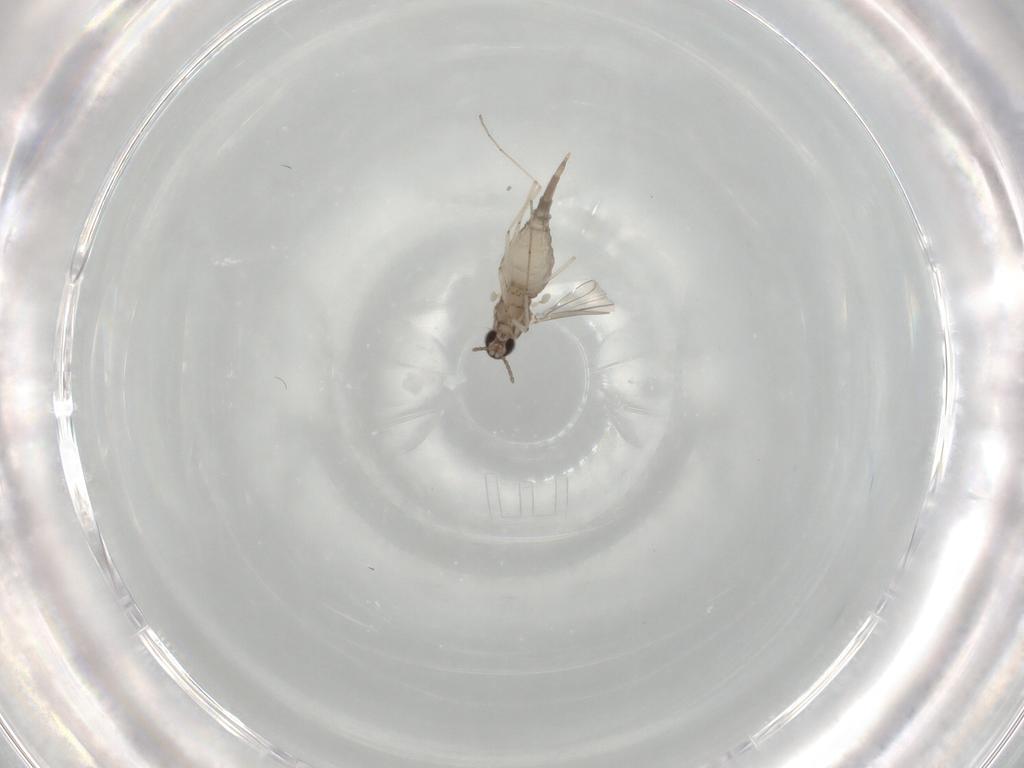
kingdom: Animalia
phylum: Arthropoda
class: Insecta
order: Diptera
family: Cecidomyiidae
